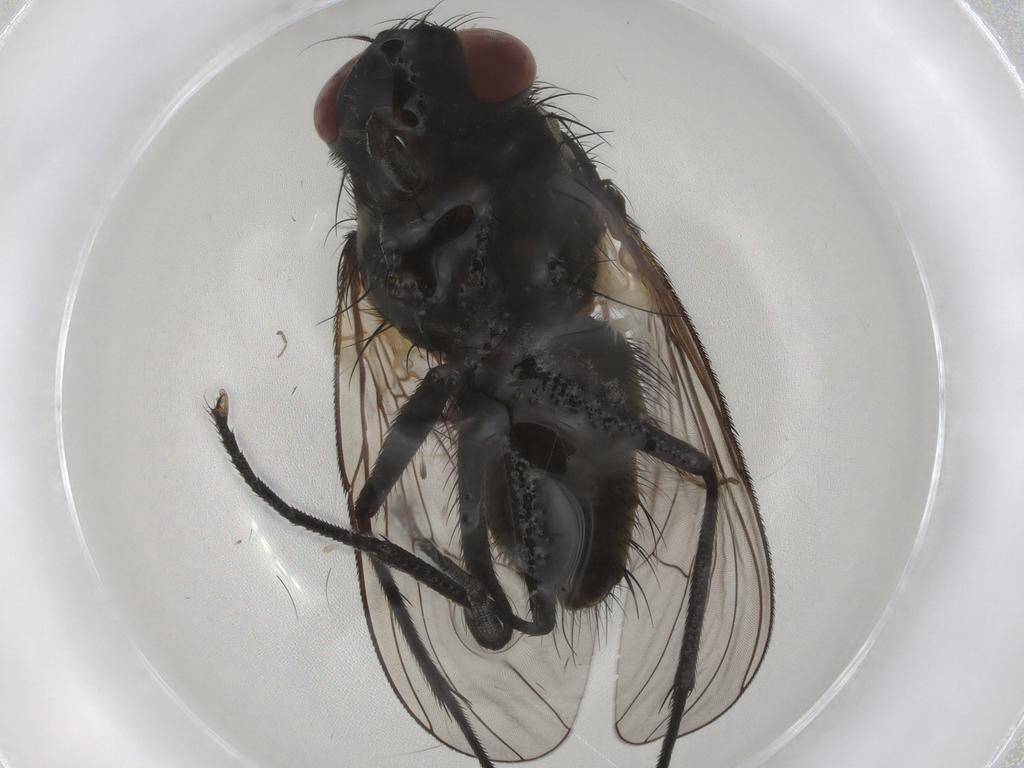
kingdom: Animalia
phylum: Arthropoda
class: Insecta
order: Diptera
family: Muscidae
